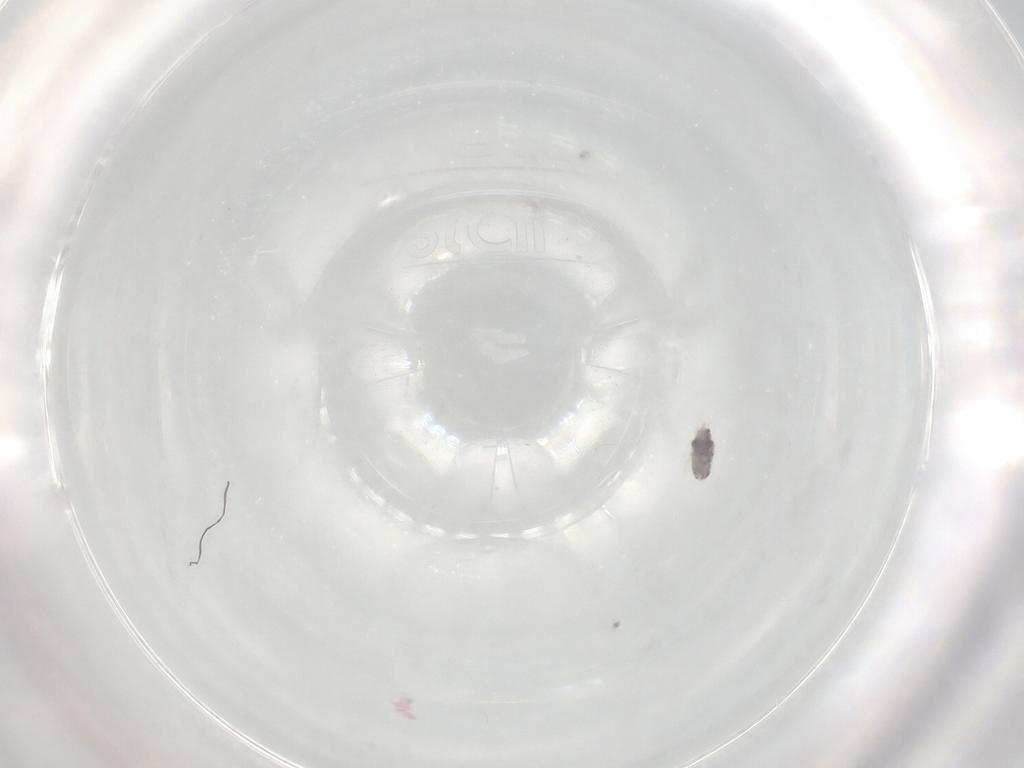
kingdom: Animalia
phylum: Arthropoda
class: Arachnida
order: Trombidiformes
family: Eupodidae
